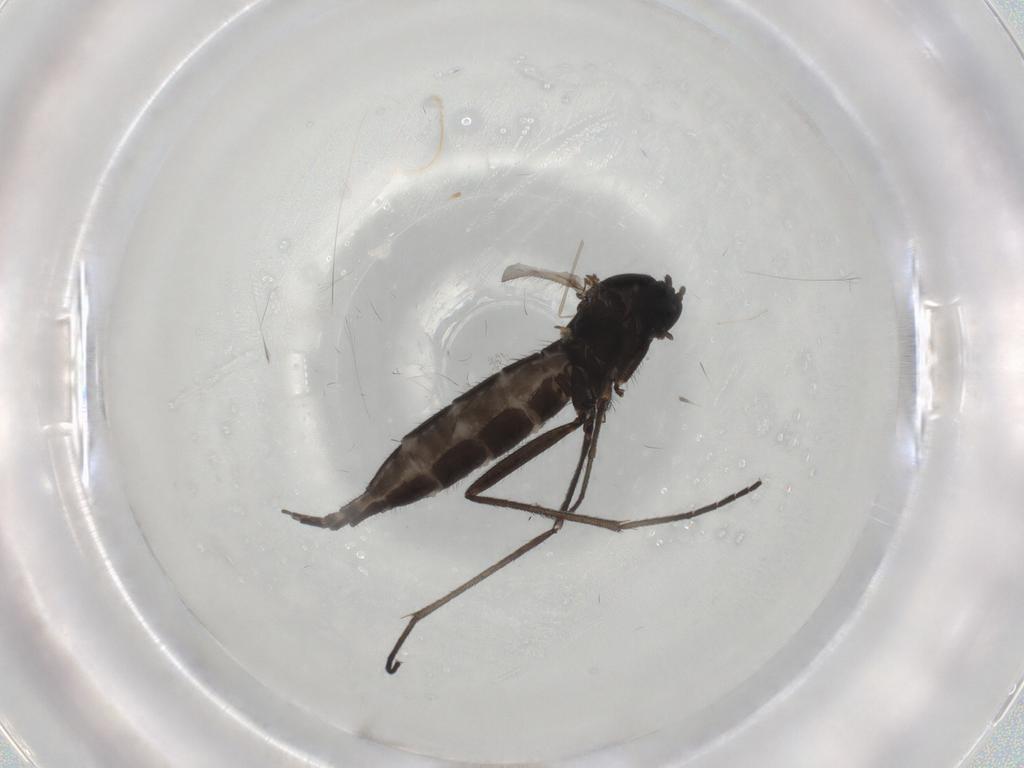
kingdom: Animalia
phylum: Arthropoda
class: Insecta
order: Diptera
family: Sciaridae
